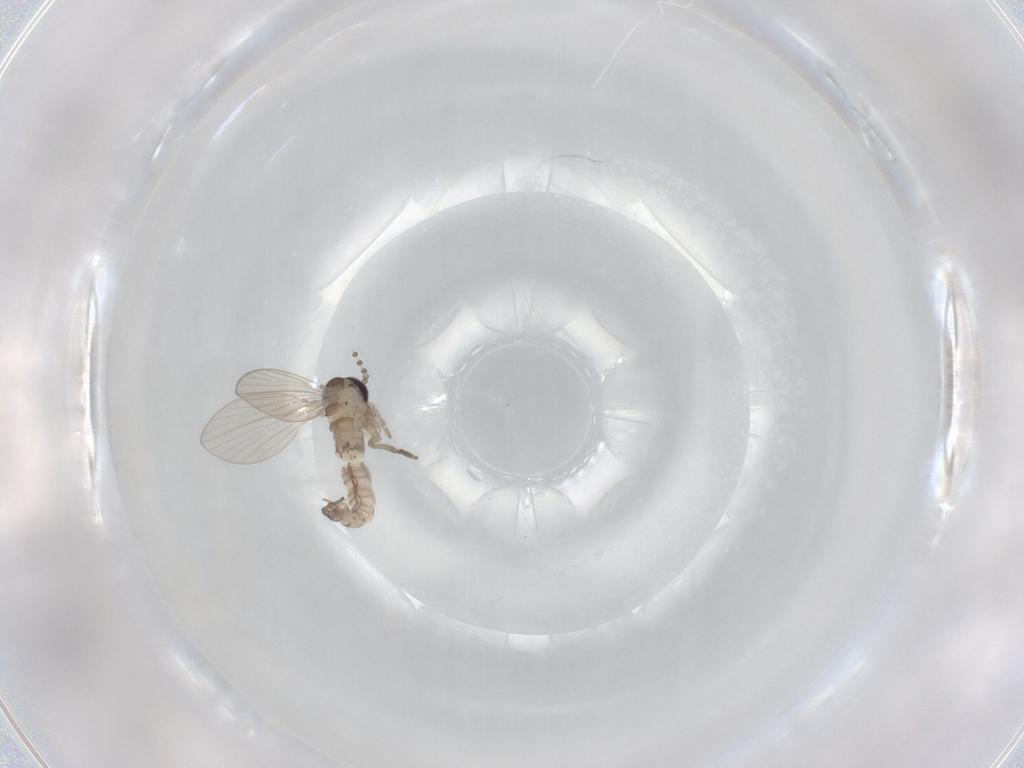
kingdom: Animalia
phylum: Arthropoda
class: Insecta
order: Diptera
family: Psychodidae
